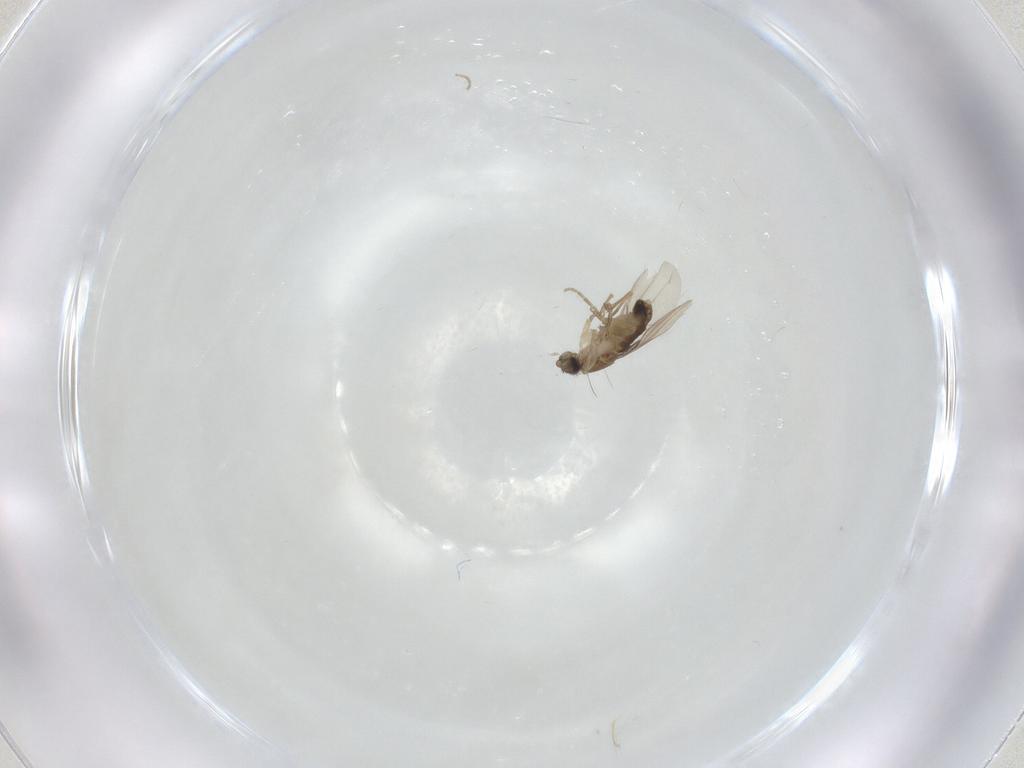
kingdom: Animalia
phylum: Arthropoda
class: Insecta
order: Diptera
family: Phoridae
